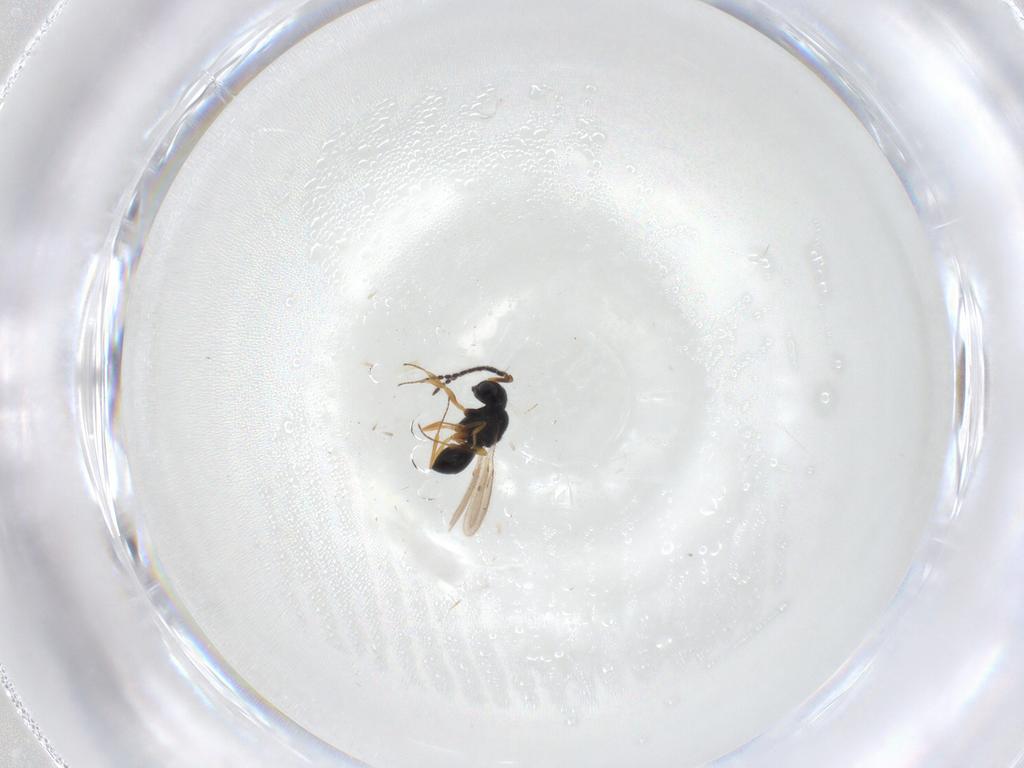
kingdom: Animalia
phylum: Arthropoda
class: Insecta
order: Hymenoptera
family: Scelionidae
